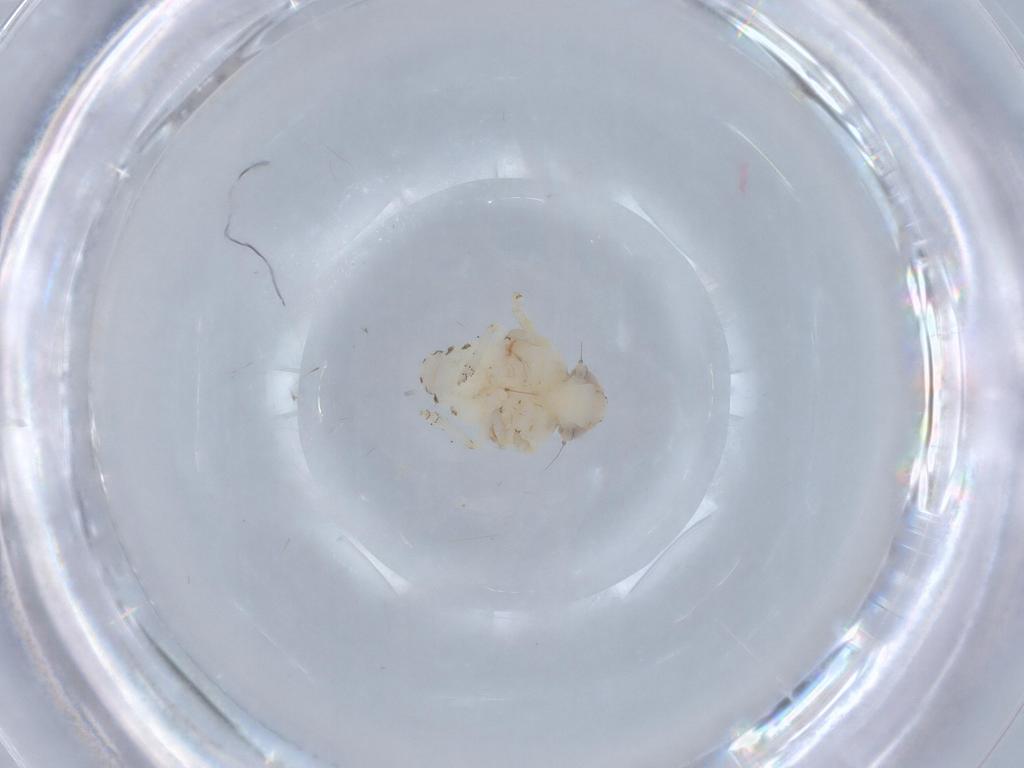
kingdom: Animalia
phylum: Arthropoda
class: Insecta
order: Hemiptera
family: Nogodinidae
